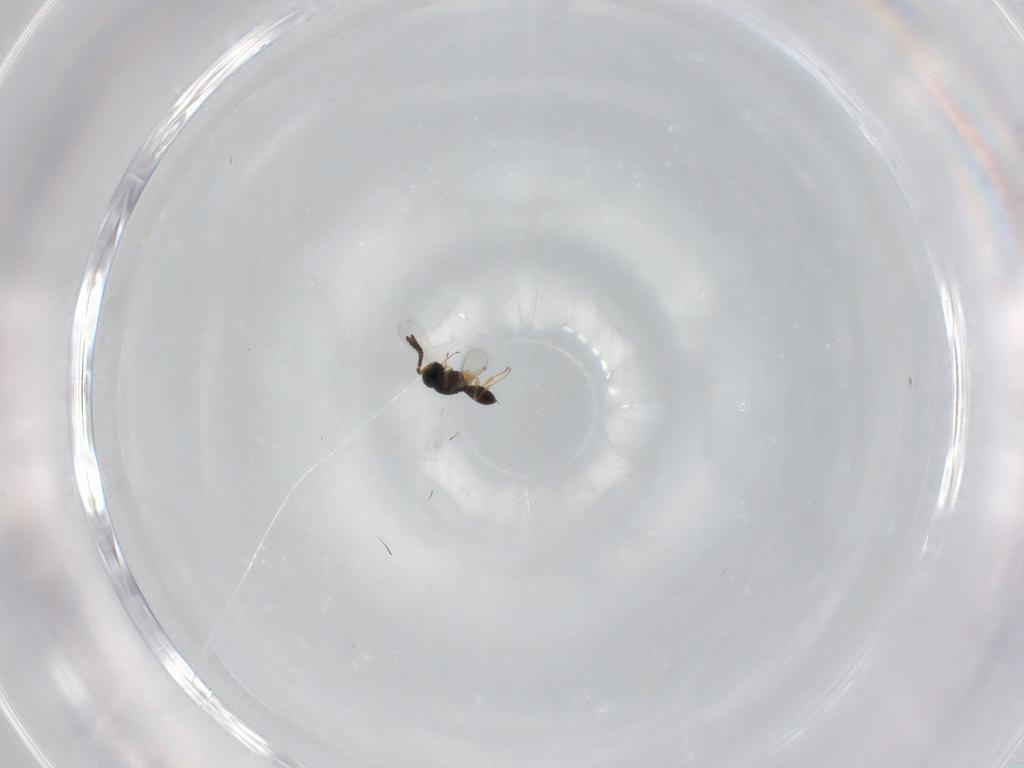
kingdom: Animalia
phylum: Arthropoda
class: Insecta
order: Hymenoptera
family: Scelionidae
